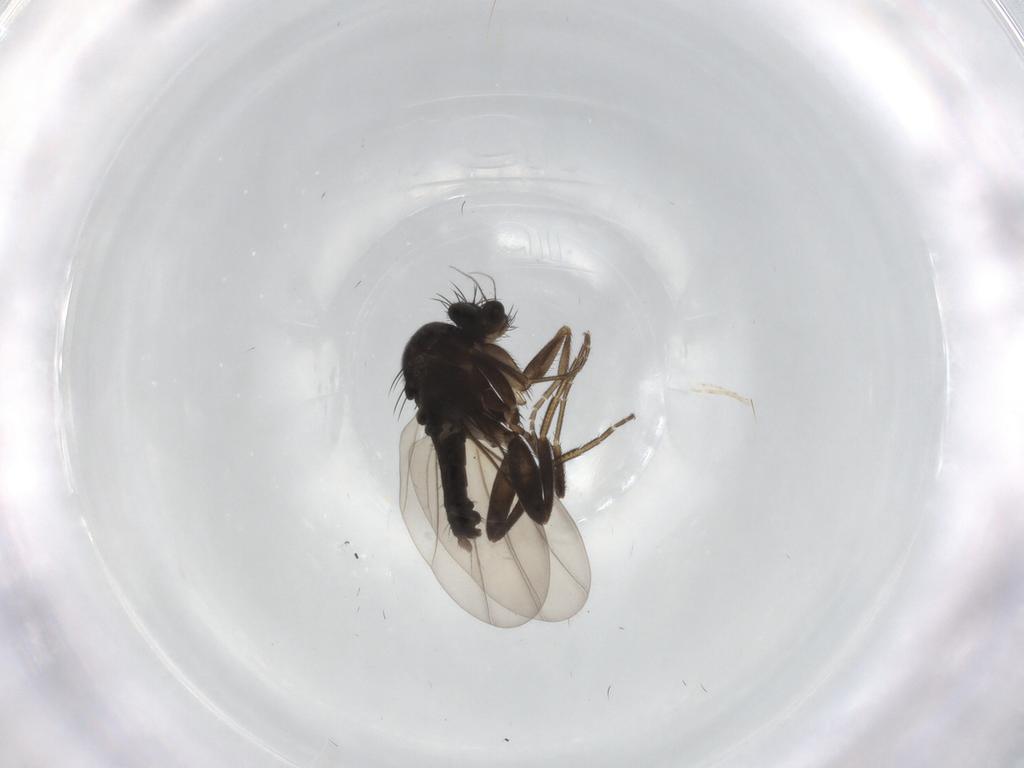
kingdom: Animalia
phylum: Arthropoda
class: Insecta
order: Diptera
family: Phoridae
